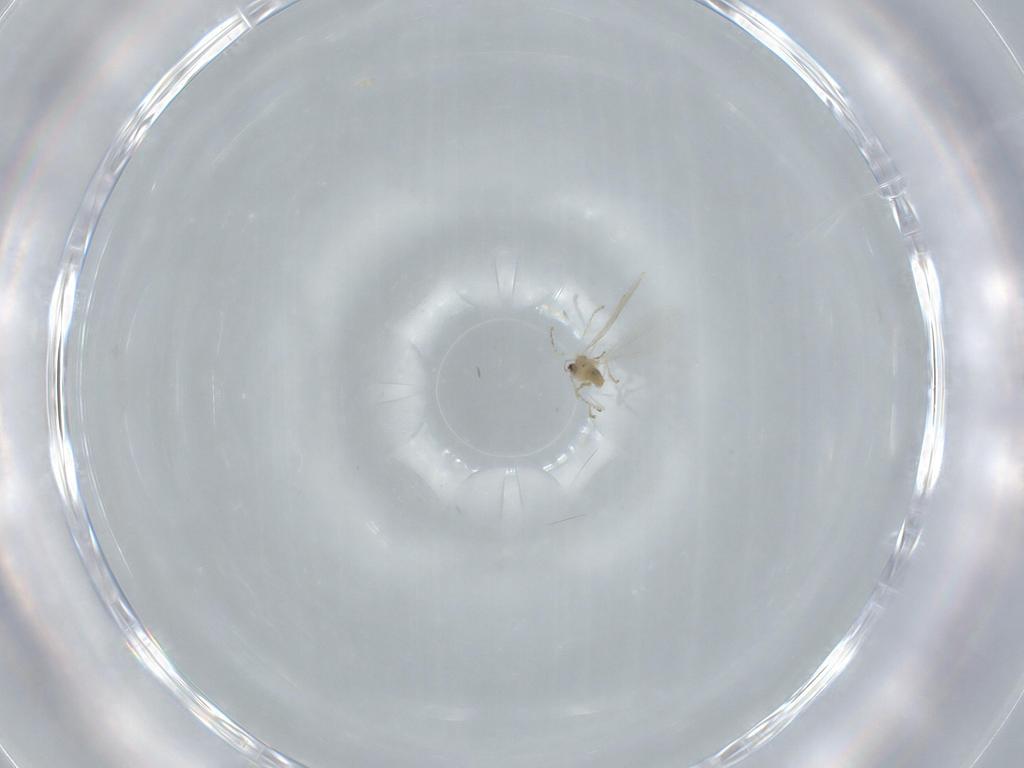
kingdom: Animalia
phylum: Arthropoda
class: Insecta
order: Diptera
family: Cecidomyiidae
